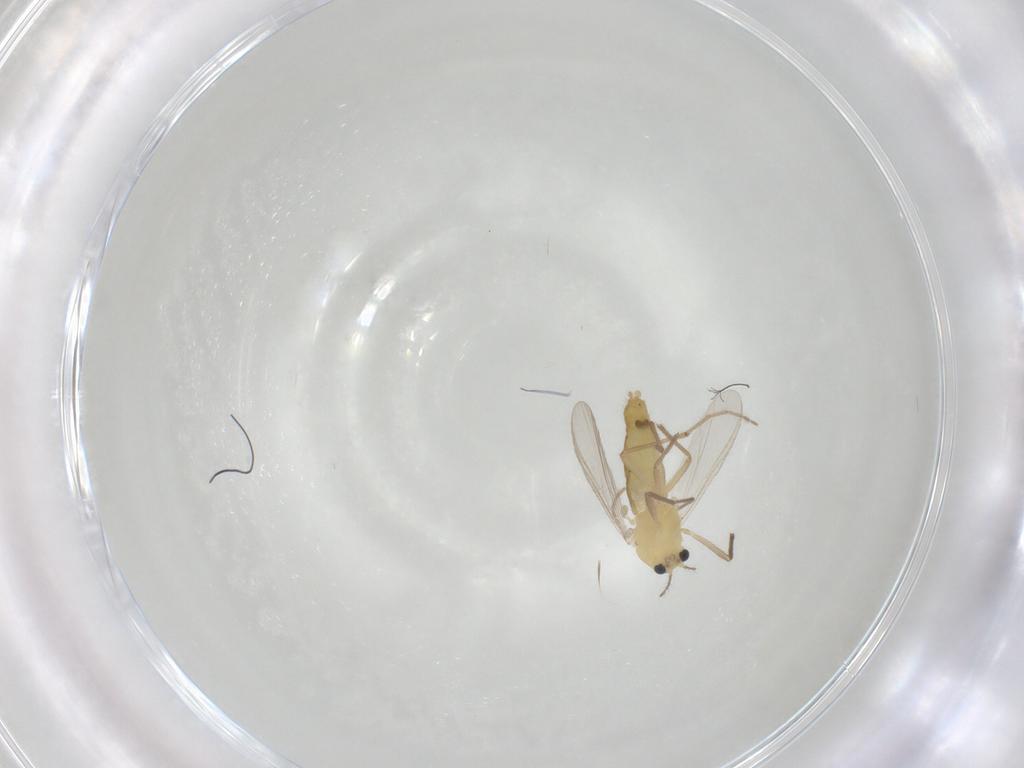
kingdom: Animalia
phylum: Arthropoda
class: Insecta
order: Diptera
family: Chironomidae
